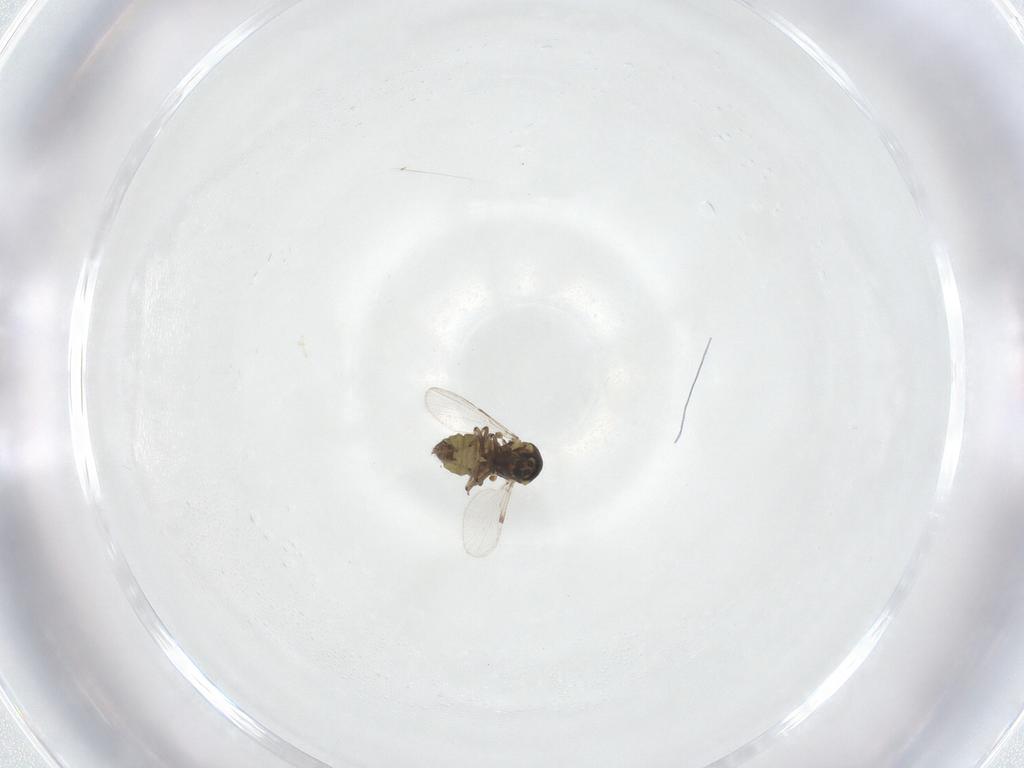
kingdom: Animalia
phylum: Arthropoda
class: Insecta
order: Diptera
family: Ceratopogonidae
